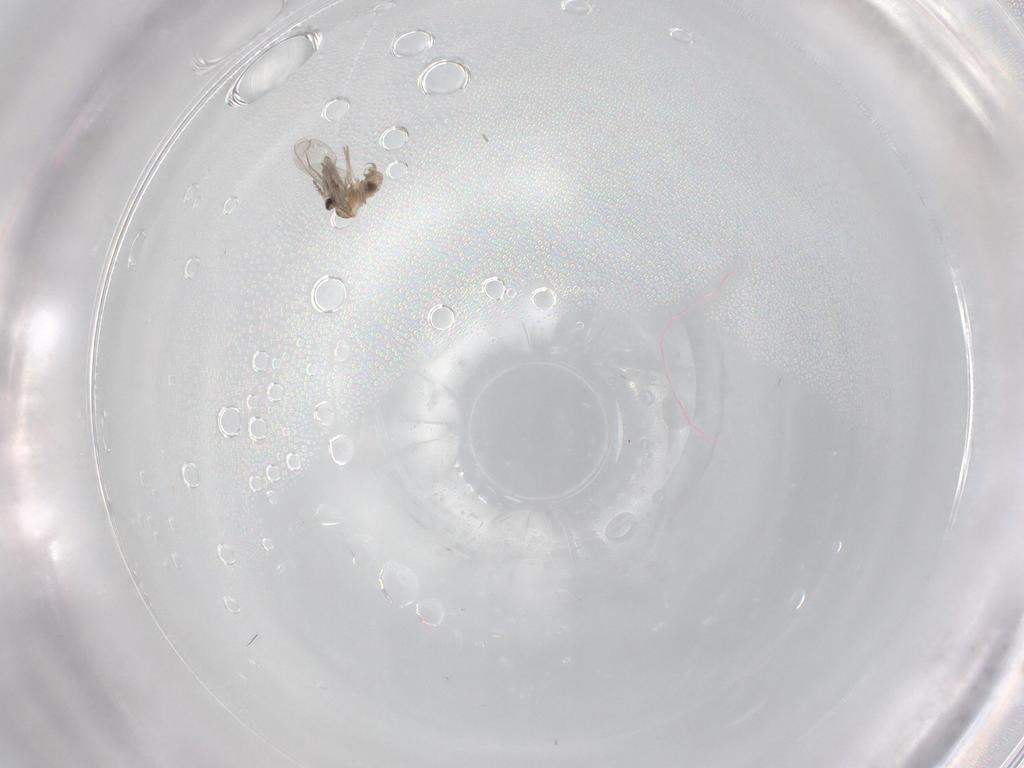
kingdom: Animalia
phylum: Arthropoda
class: Insecta
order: Diptera
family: Cecidomyiidae
